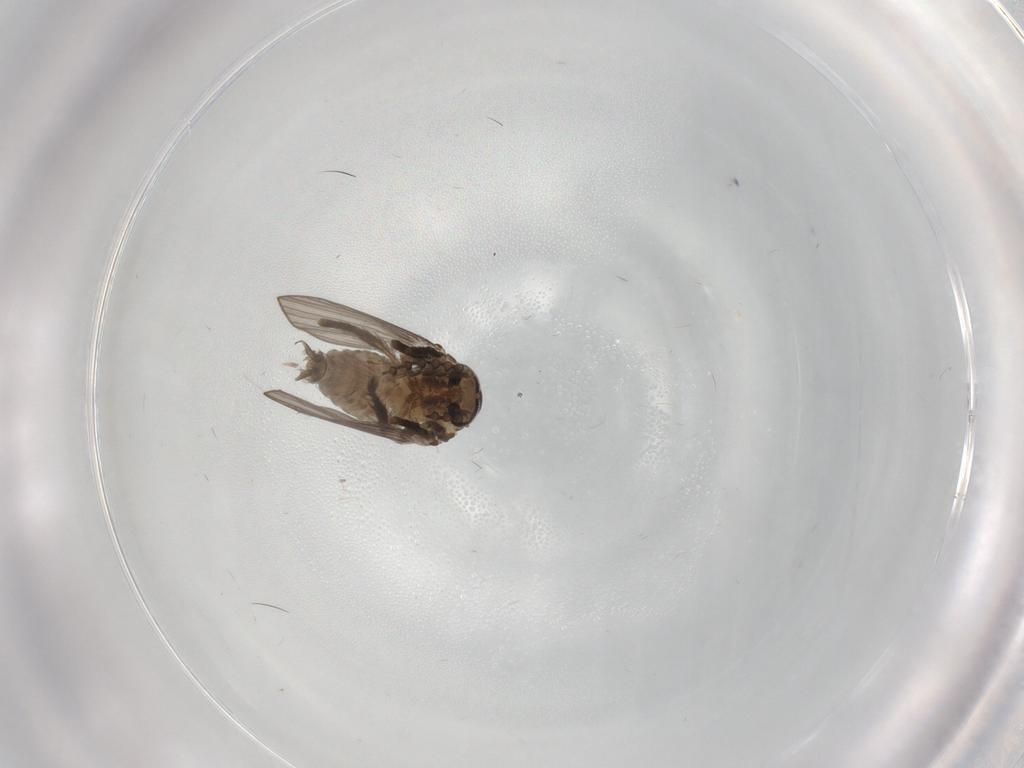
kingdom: Animalia
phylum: Arthropoda
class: Insecta
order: Diptera
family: Psychodidae
